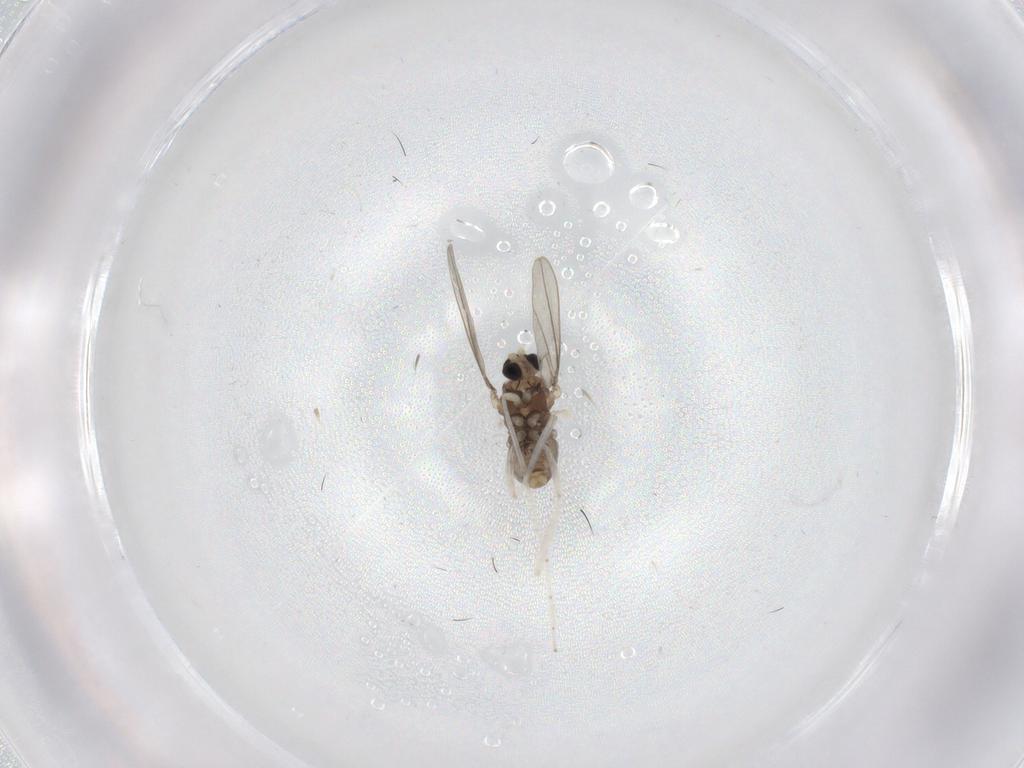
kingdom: Animalia
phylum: Arthropoda
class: Insecta
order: Diptera
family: Cecidomyiidae
